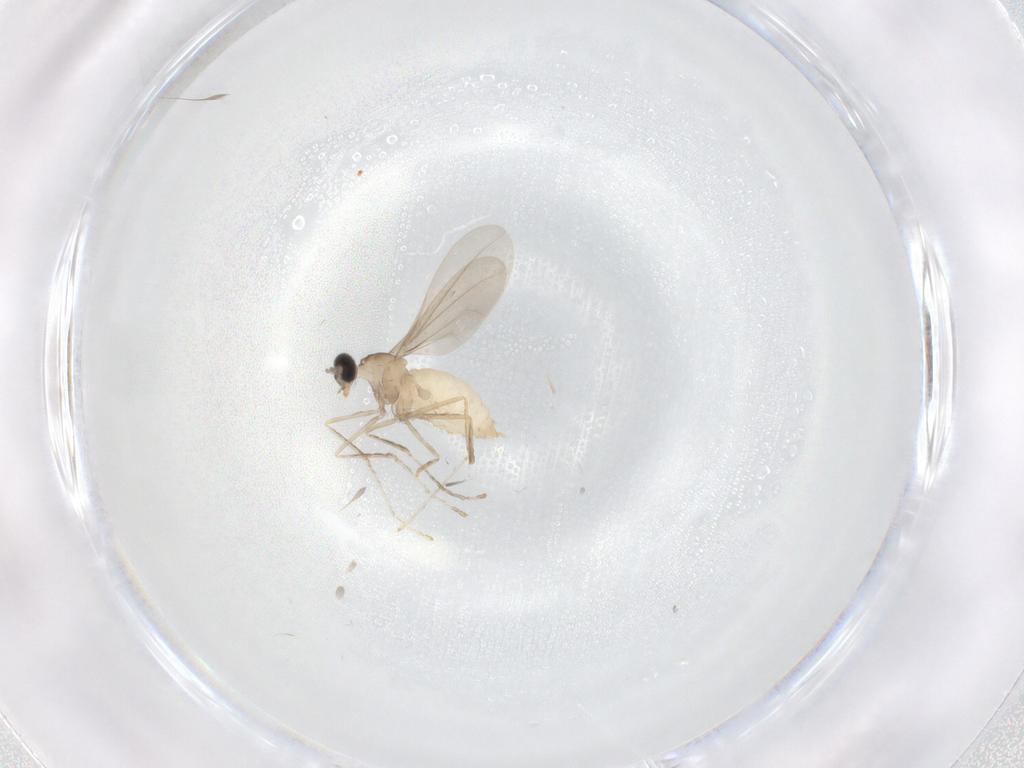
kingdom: Animalia
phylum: Arthropoda
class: Insecta
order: Diptera
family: Cecidomyiidae
